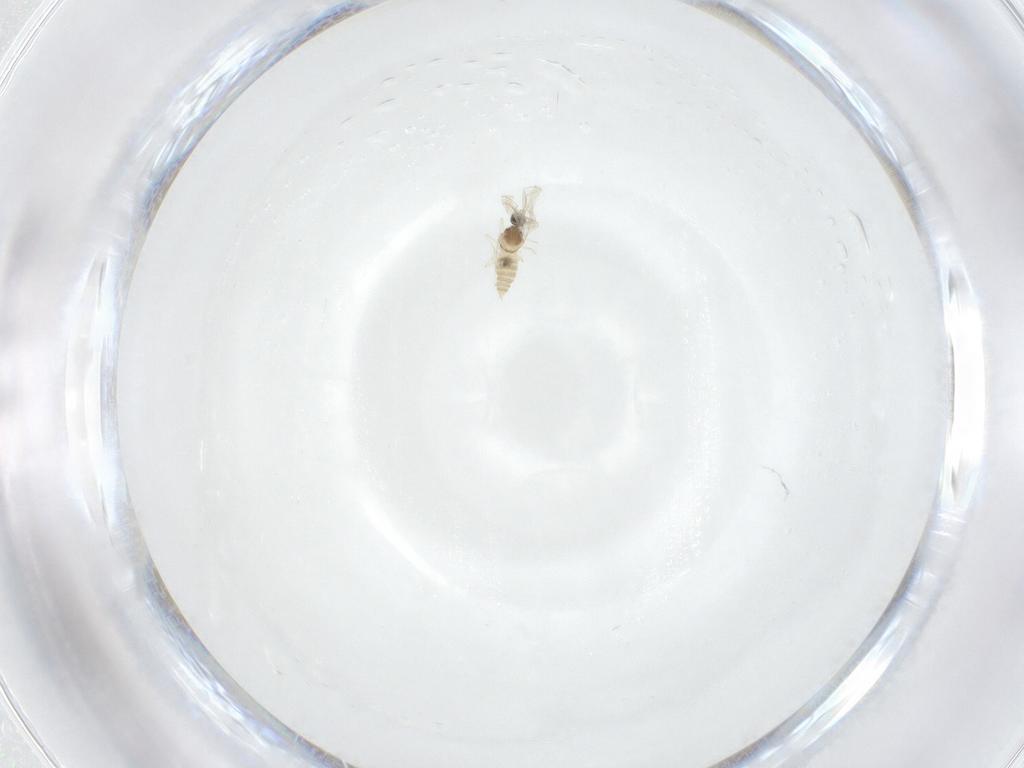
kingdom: Animalia
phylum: Arthropoda
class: Insecta
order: Diptera
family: Cecidomyiidae
